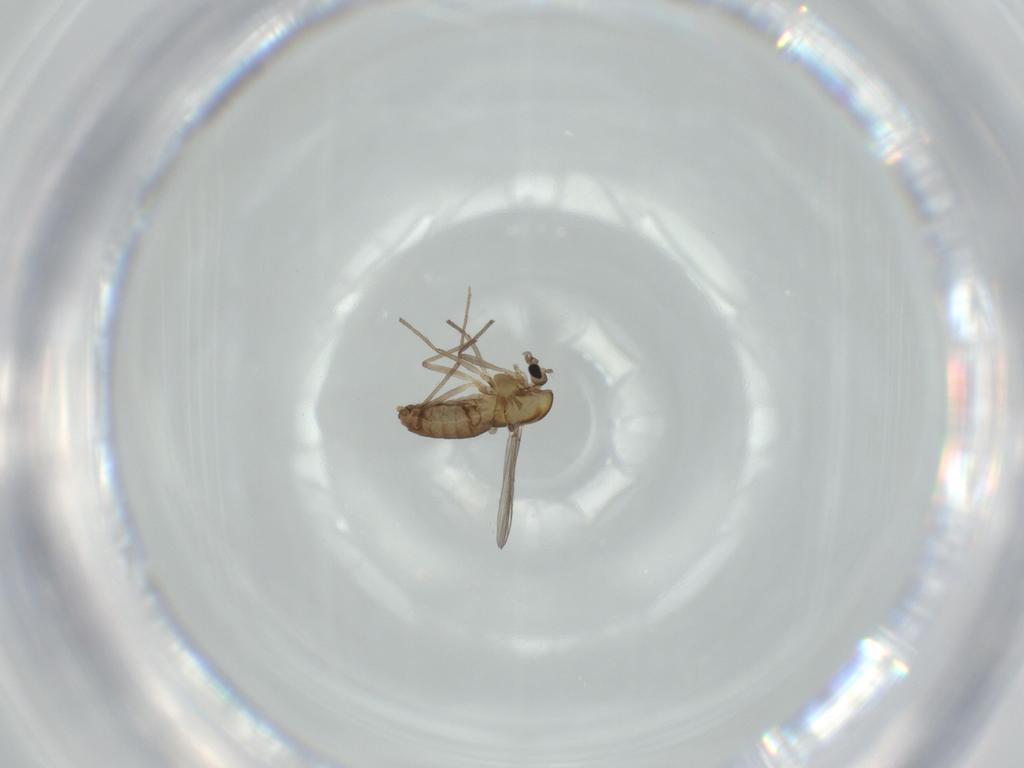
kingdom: Animalia
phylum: Arthropoda
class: Insecta
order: Diptera
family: Chironomidae
